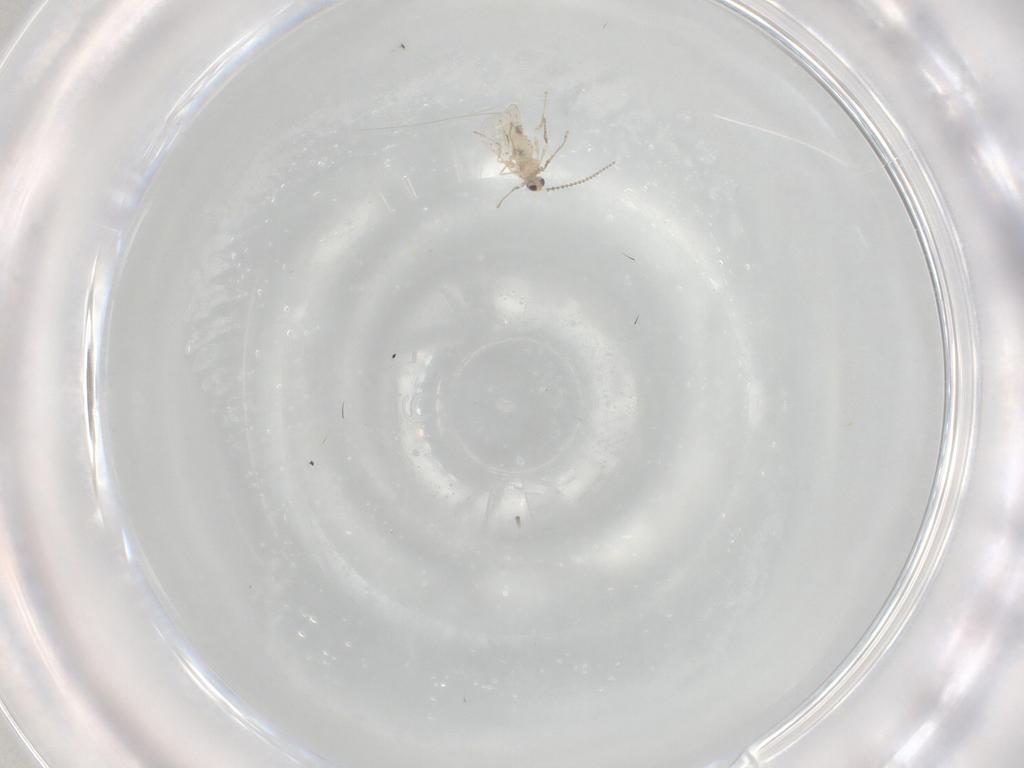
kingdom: Animalia
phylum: Arthropoda
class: Insecta
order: Diptera
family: Cecidomyiidae
